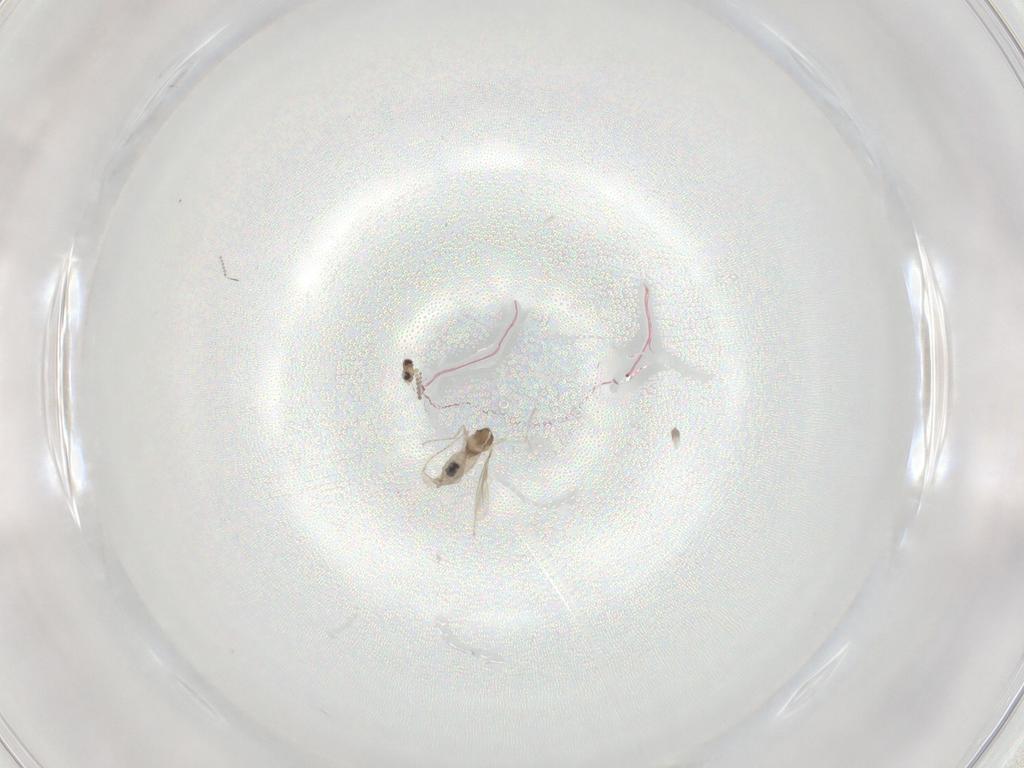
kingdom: Animalia
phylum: Arthropoda
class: Insecta
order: Diptera
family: Cecidomyiidae
